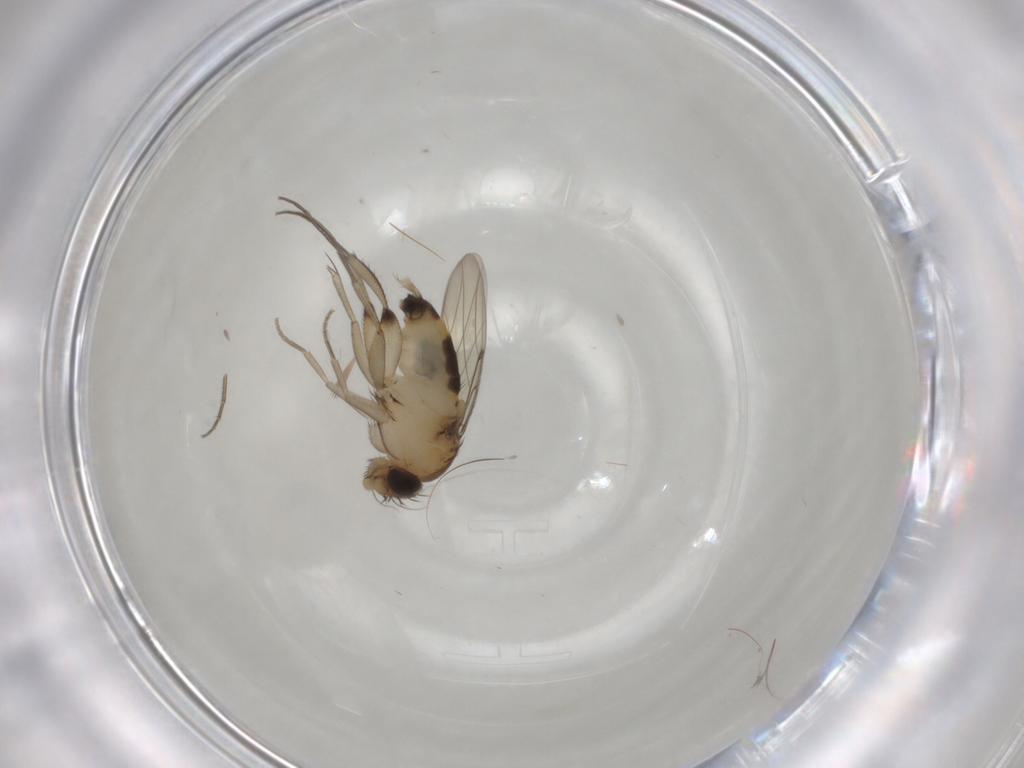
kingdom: Animalia
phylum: Arthropoda
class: Insecta
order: Diptera
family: Phoridae
